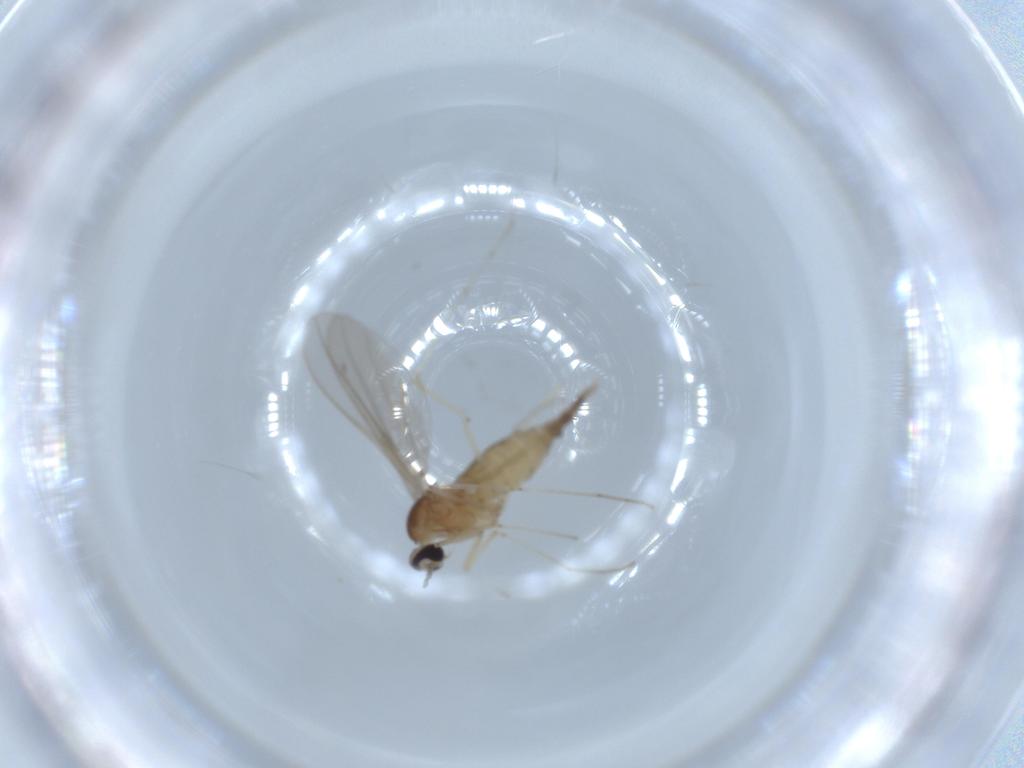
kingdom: Animalia
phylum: Arthropoda
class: Insecta
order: Diptera
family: Cecidomyiidae
